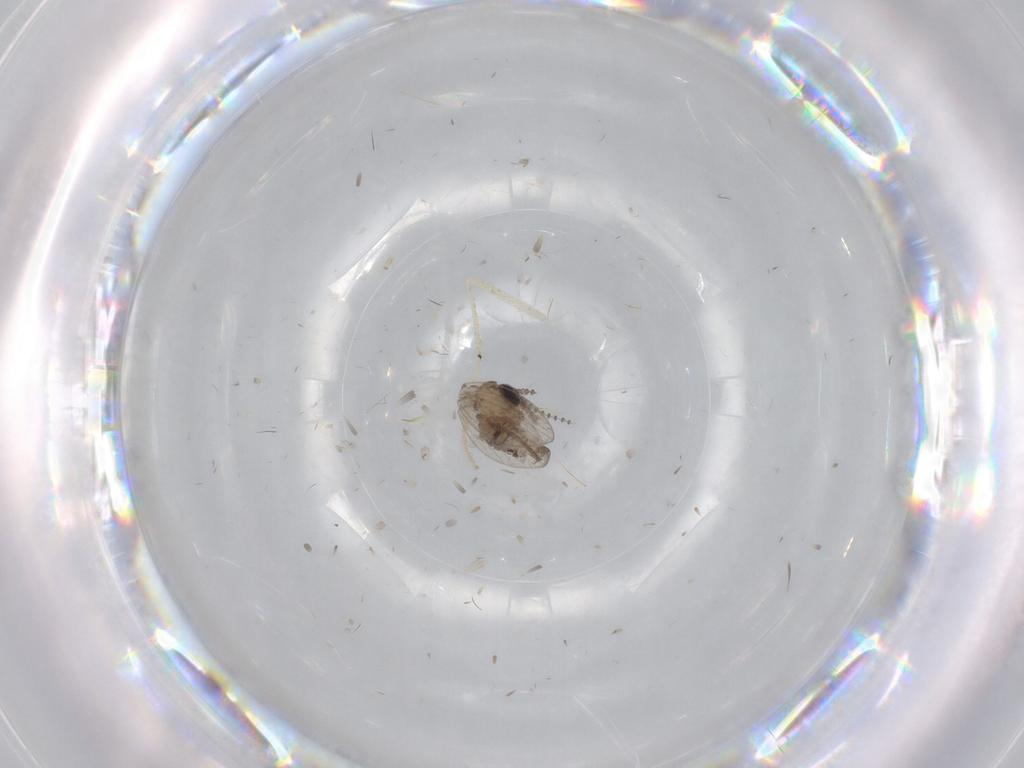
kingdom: Animalia
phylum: Arthropoda
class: Insecta
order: Diptera
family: Psychodidae
